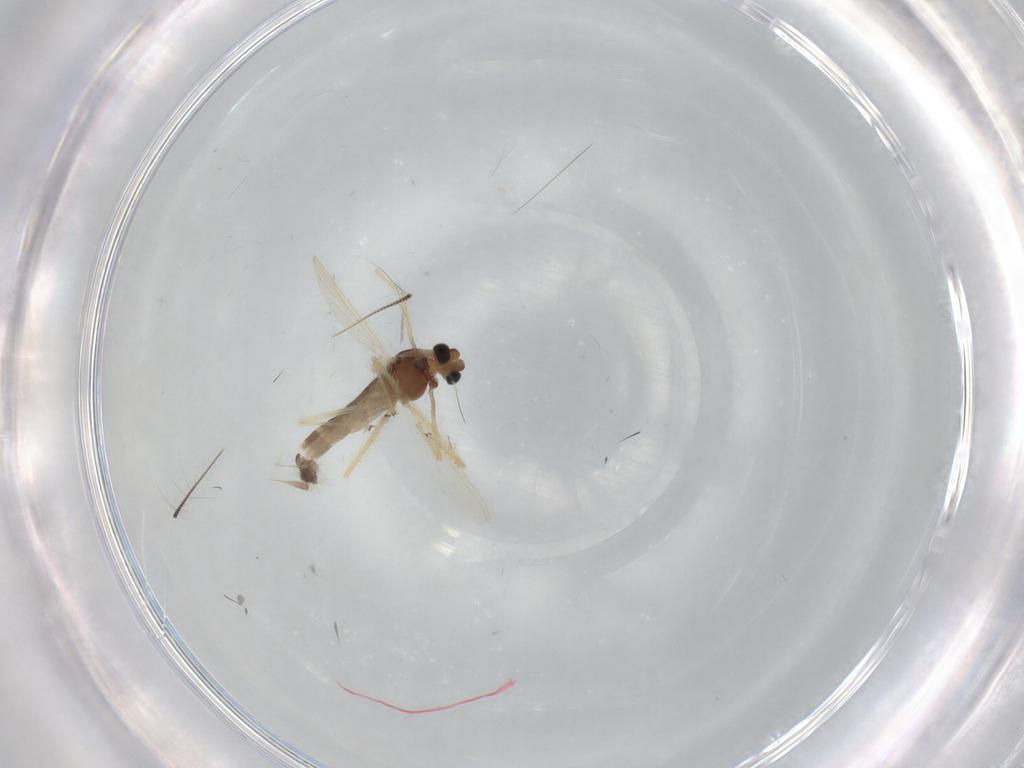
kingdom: Animalia
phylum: Arthropoda
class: Insecta
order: Diptera
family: Chironomidae
